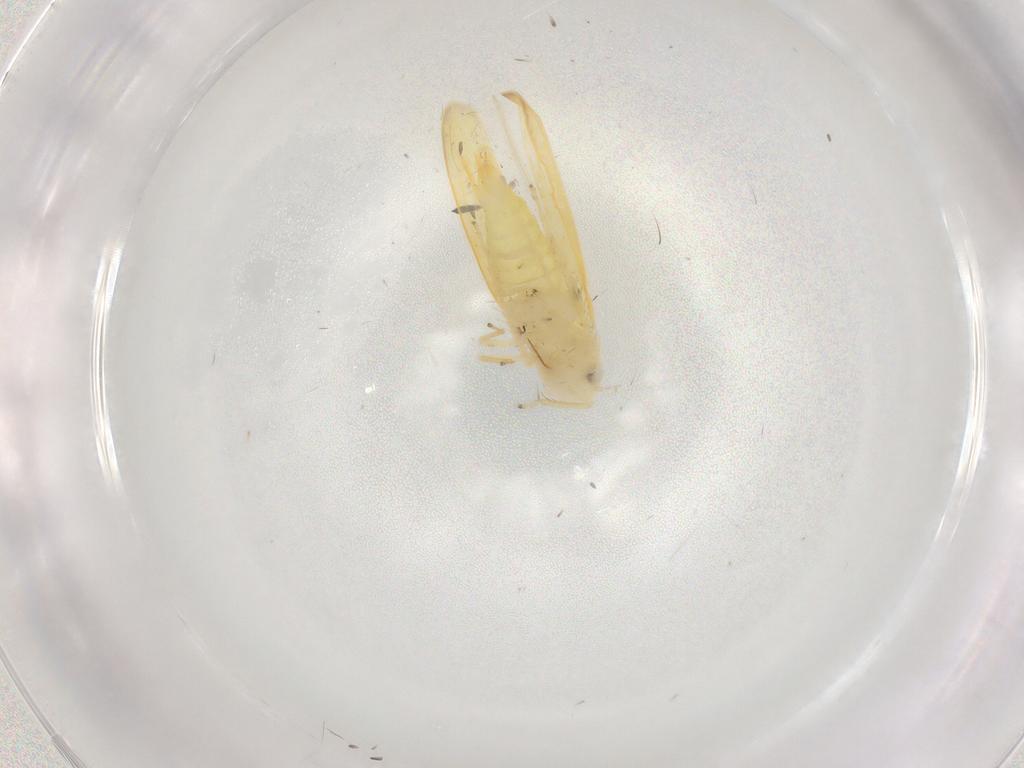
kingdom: Animalia
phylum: Arthropoda
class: Insecta
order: Hemiptera
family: Cicadellidae
